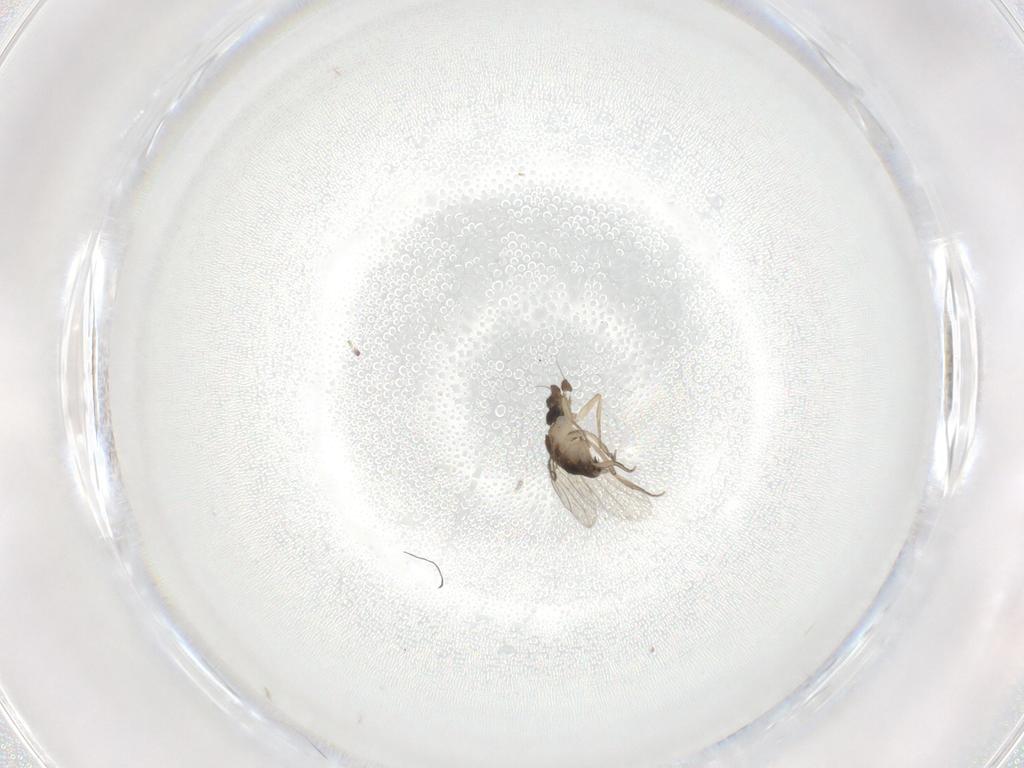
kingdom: Animalia
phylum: Arthropoda
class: Insecta
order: Diptera
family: Phoridae
